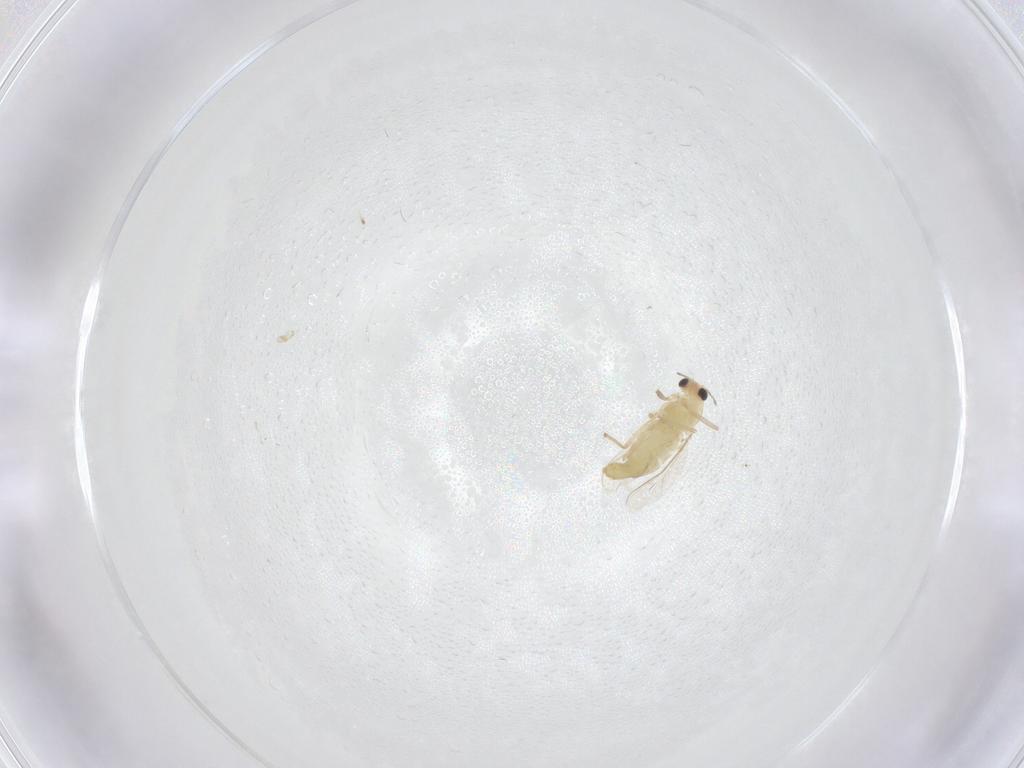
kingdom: Animalia
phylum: Arthropoda
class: Insecta
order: Diptera
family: Chironomidae
